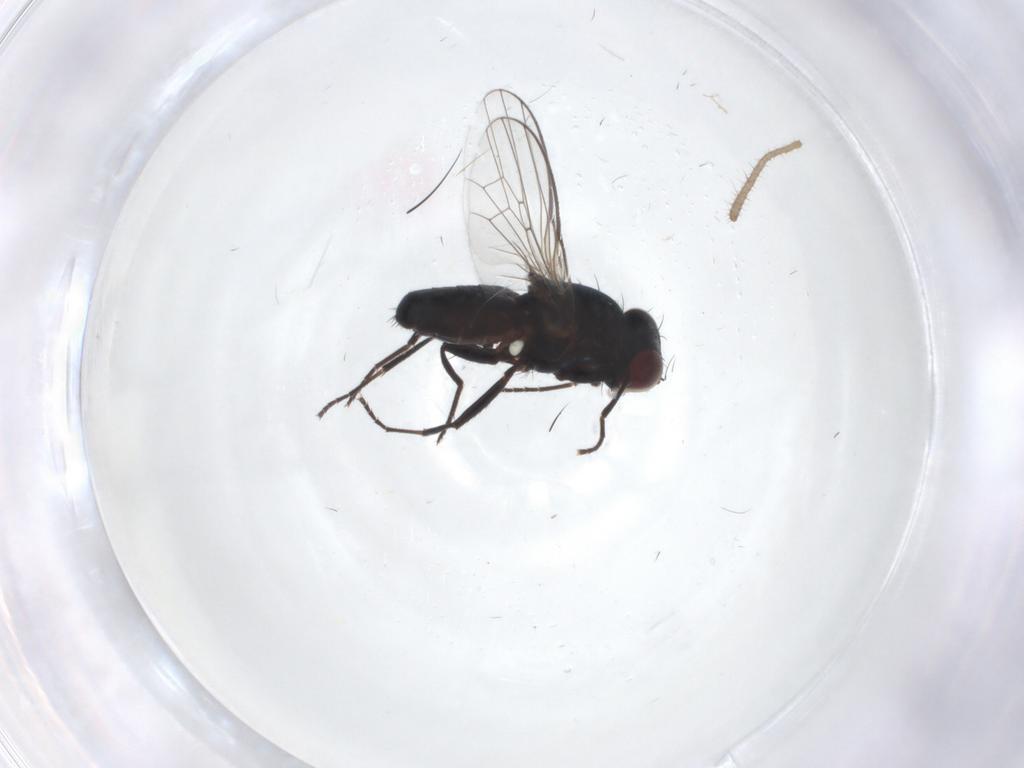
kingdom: Animalia
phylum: Arthropoda
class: Insecta
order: Diptera
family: Carnidae
